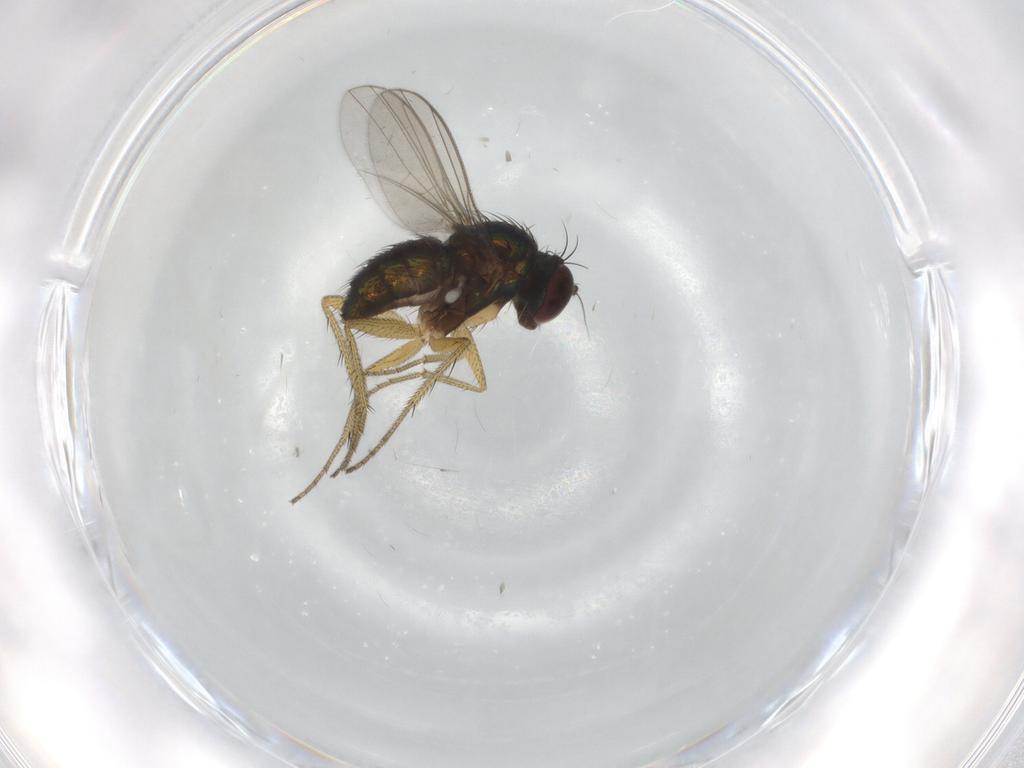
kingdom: Animalia
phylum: Arthropoda
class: Insecta
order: Diptera
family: Dolichopodidae
